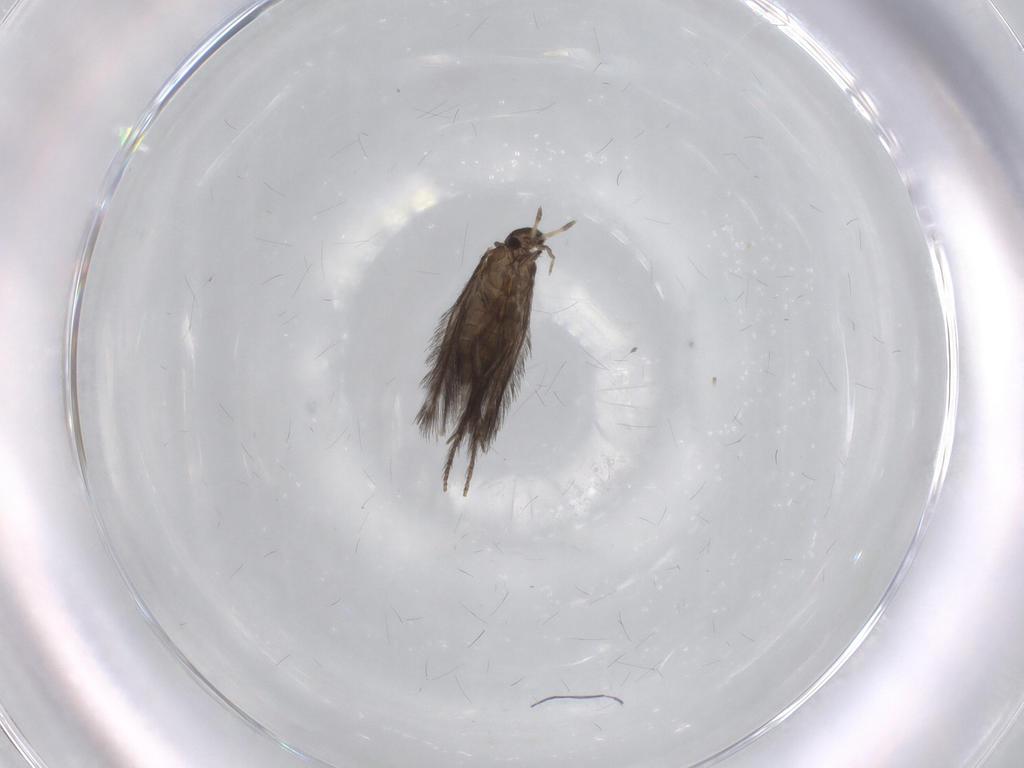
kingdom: Animalia
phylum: Arthropoda
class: Insecta
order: Trichoptera
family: Hydroptilidae
